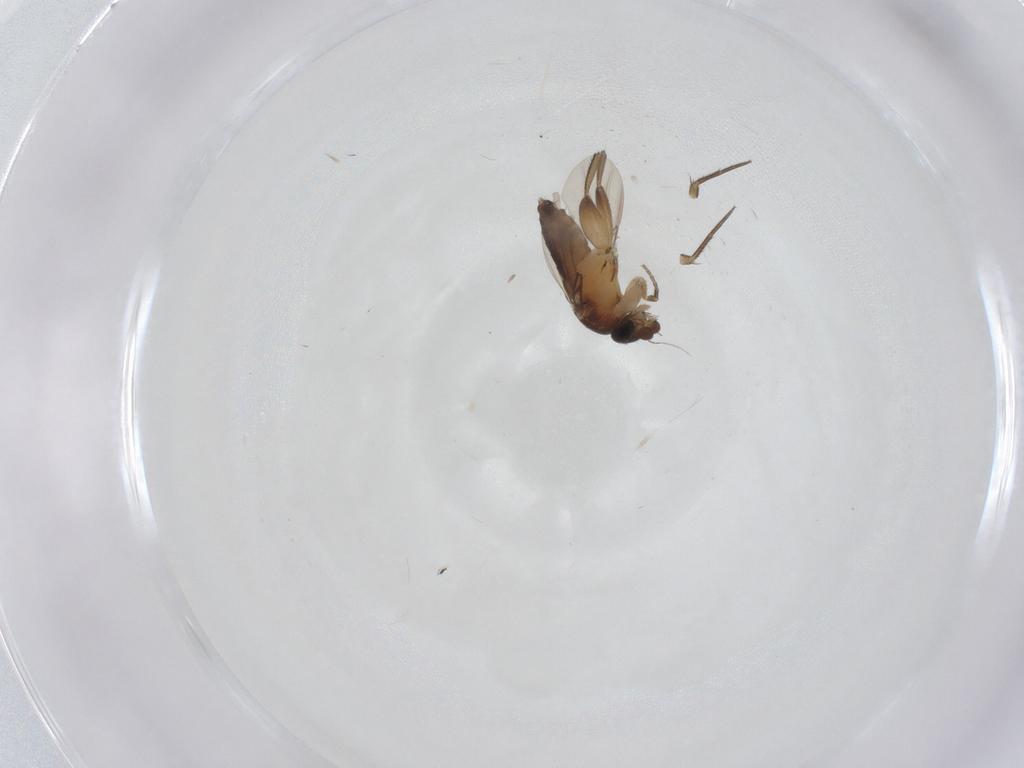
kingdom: Animalia
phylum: Arthropoda
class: Insecta
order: Diptera
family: Phoridae
